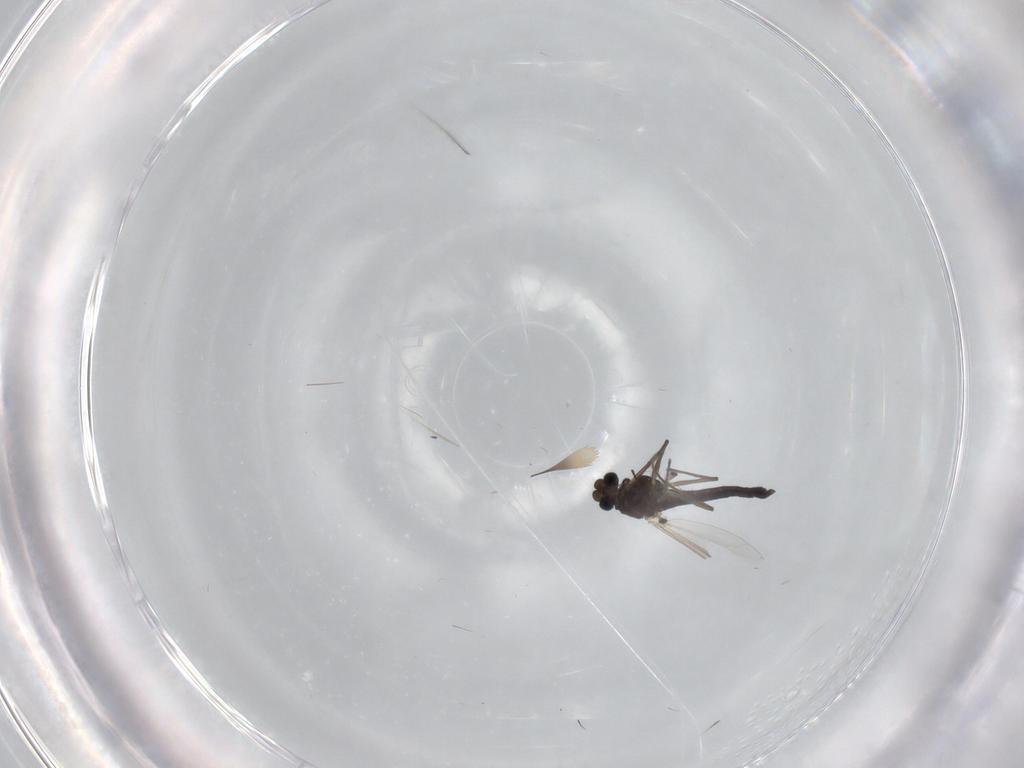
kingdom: Animalia
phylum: Arthropoda
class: Insecta
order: Diptera
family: Chironomidae
